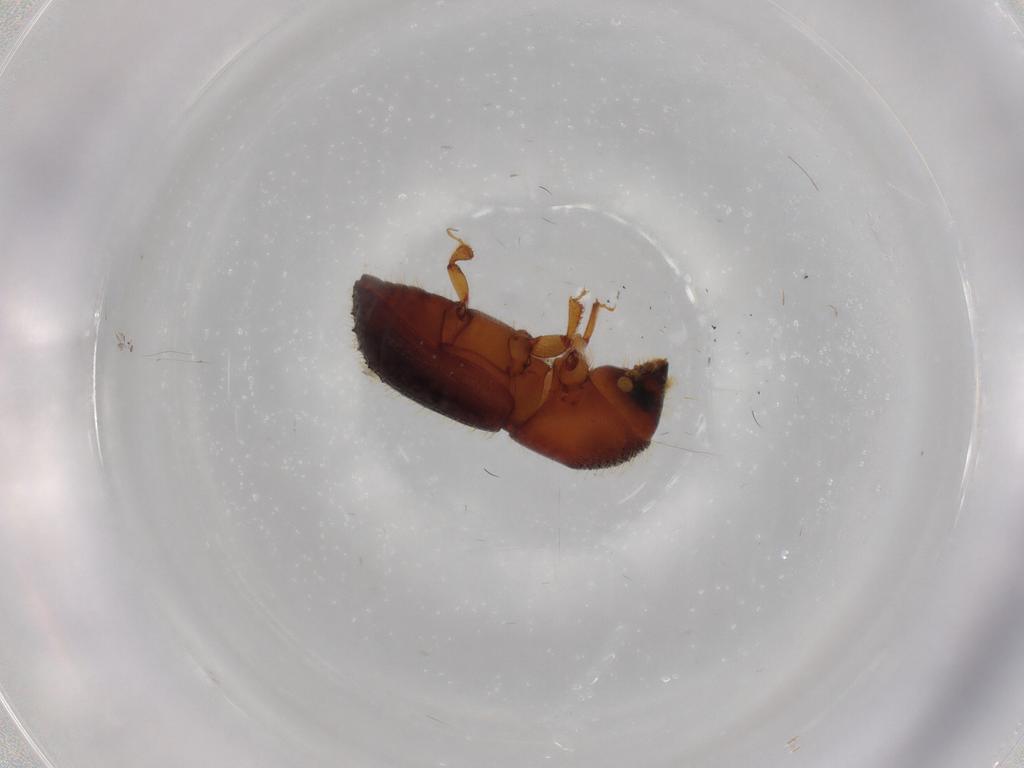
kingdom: Animalia
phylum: Arthropoda
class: Insecta
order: Coleoptera
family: Curculionidae
